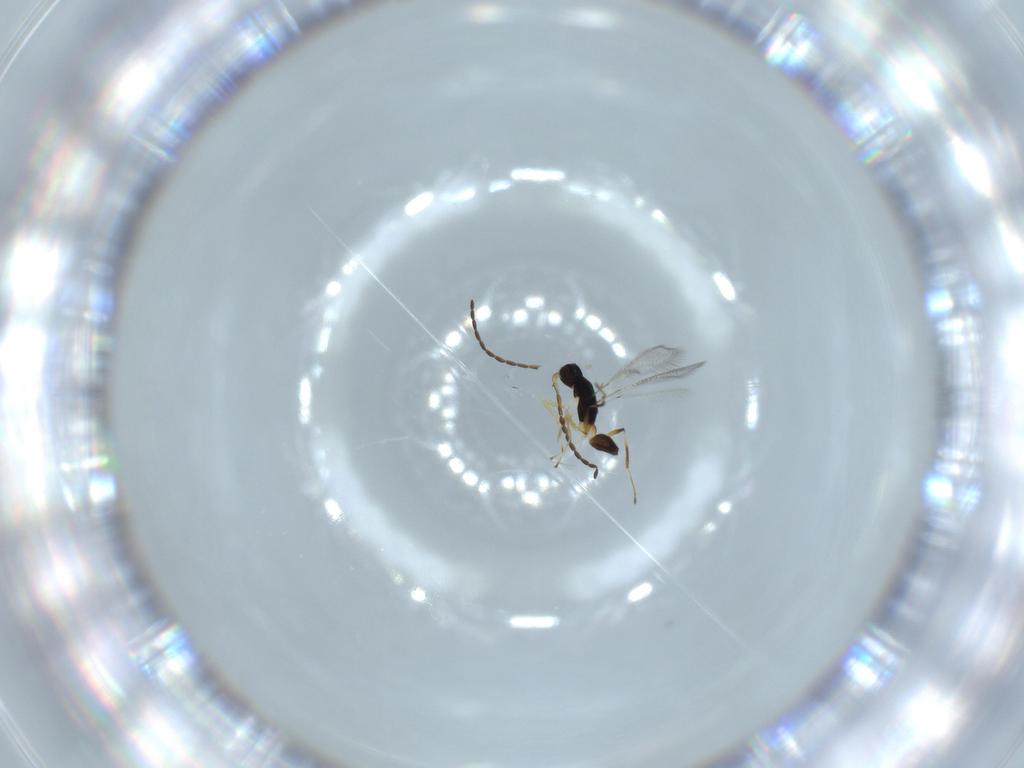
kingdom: Animalia
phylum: Arthropoda
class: Insecta
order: Hymenoptera
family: Mymaridae
